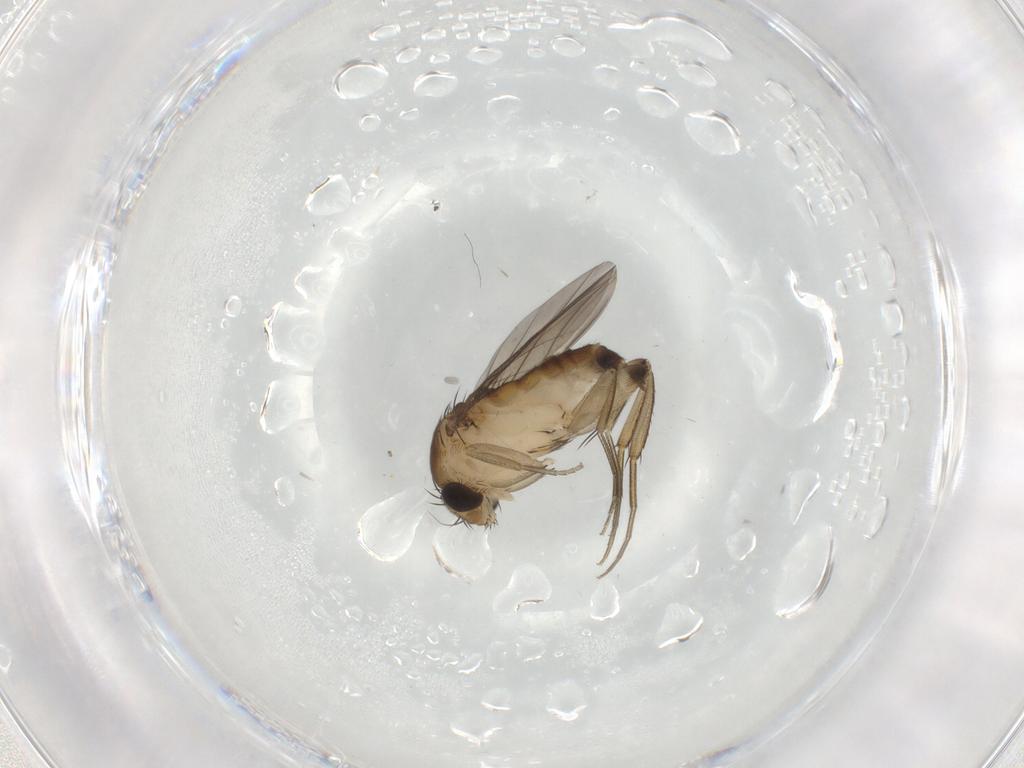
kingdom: Animalia
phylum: Arthropoda
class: Insecta
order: Diptera
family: Phoridae
